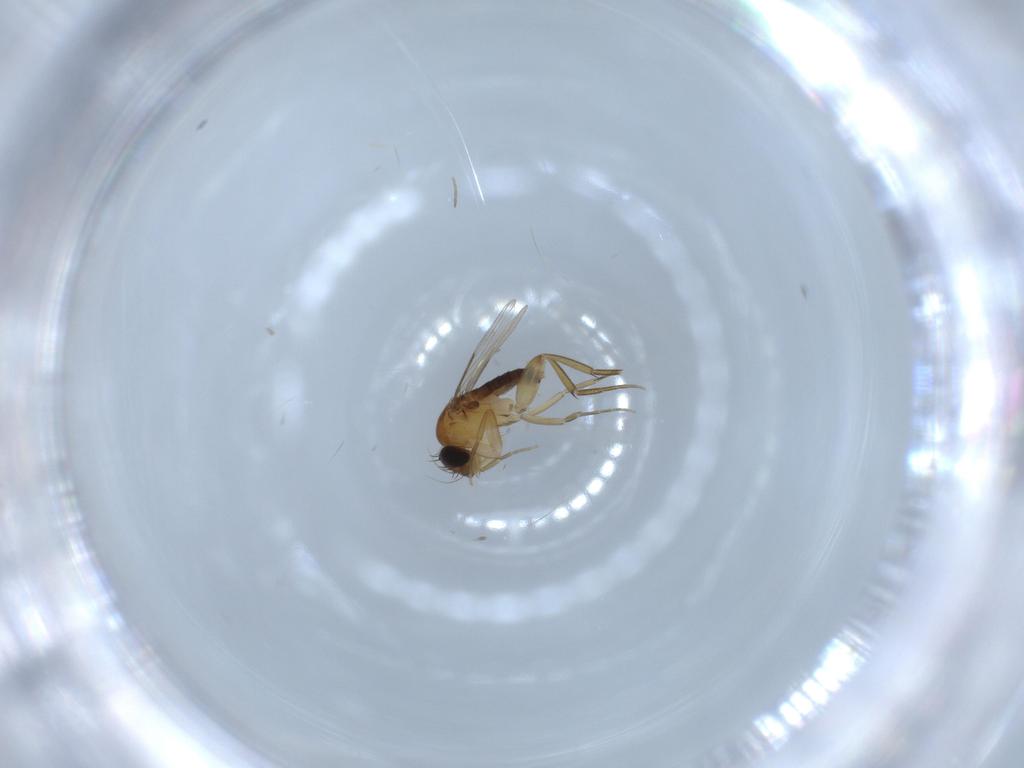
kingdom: Animalia
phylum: Arthropoda
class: Insecta
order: Diptera
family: Phoridae
